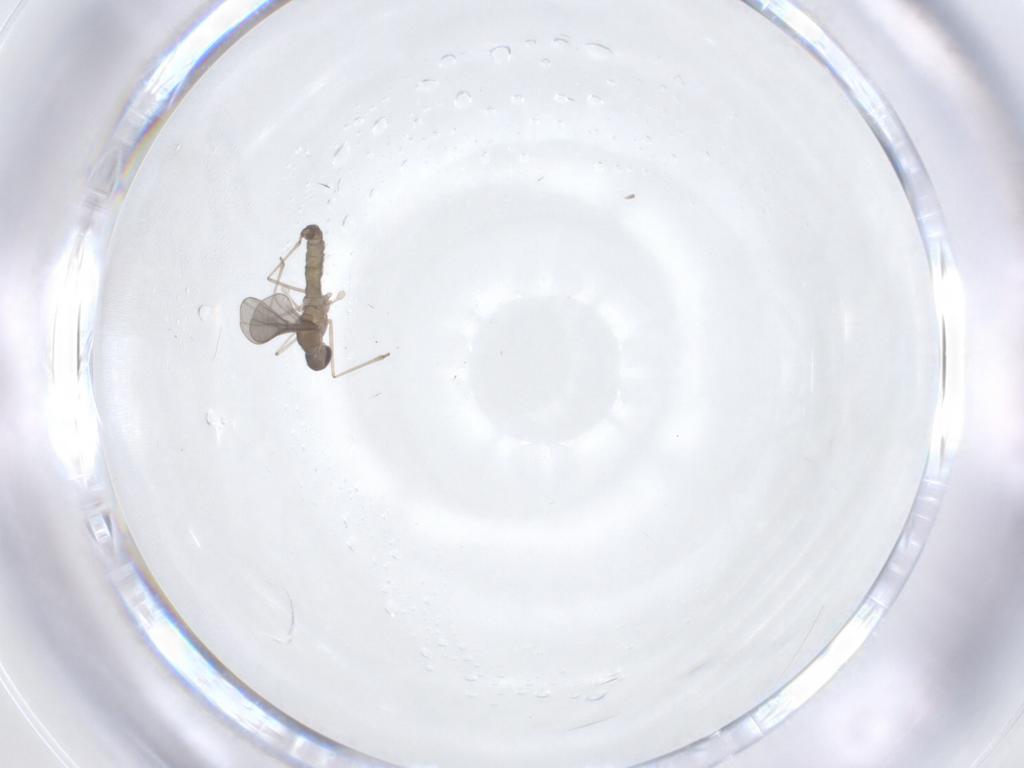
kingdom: Animalia
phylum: Arthropoda
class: Insecta
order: Diptera
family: Cecidomyiidae
